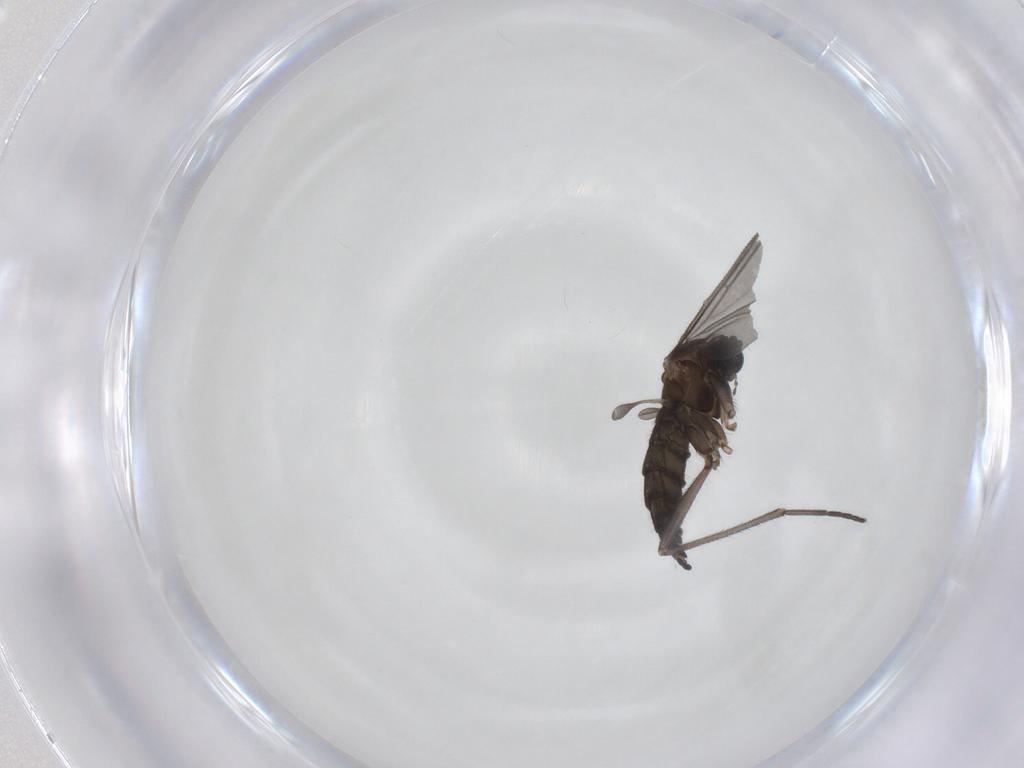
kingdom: Animalia
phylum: Arthropoda
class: Insecta
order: Diptera
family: Sciaridae
